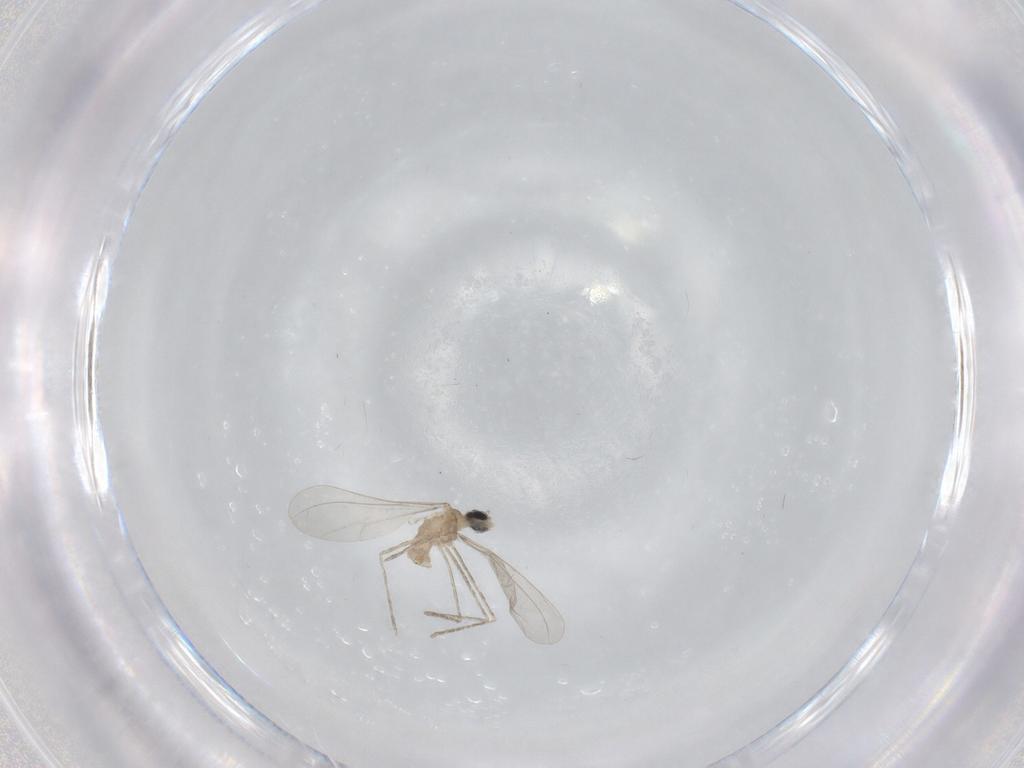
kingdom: Animalia
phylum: Arthropoda
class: Insecta
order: Diptera
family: Cecidomyiidae
